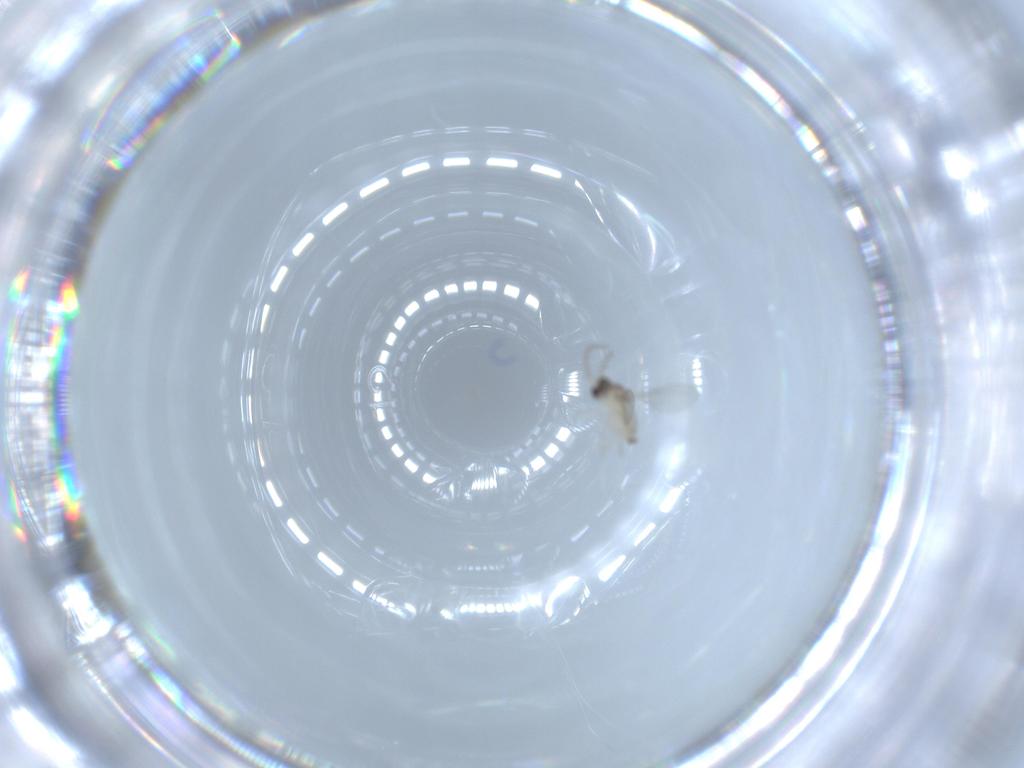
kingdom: Animalia
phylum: Arthropoda
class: Insecta
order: Diptera
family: Cecidomyiidae
